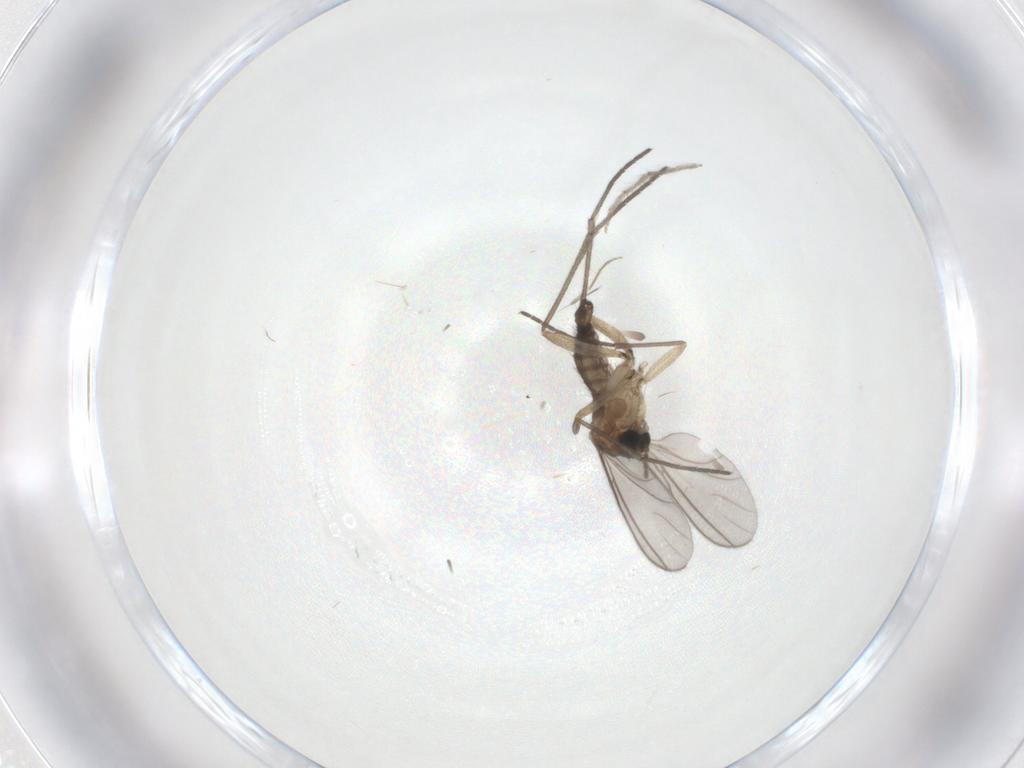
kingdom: Animalia
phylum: Arthropoda
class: Insecta
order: Diptera
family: Sciaridae
